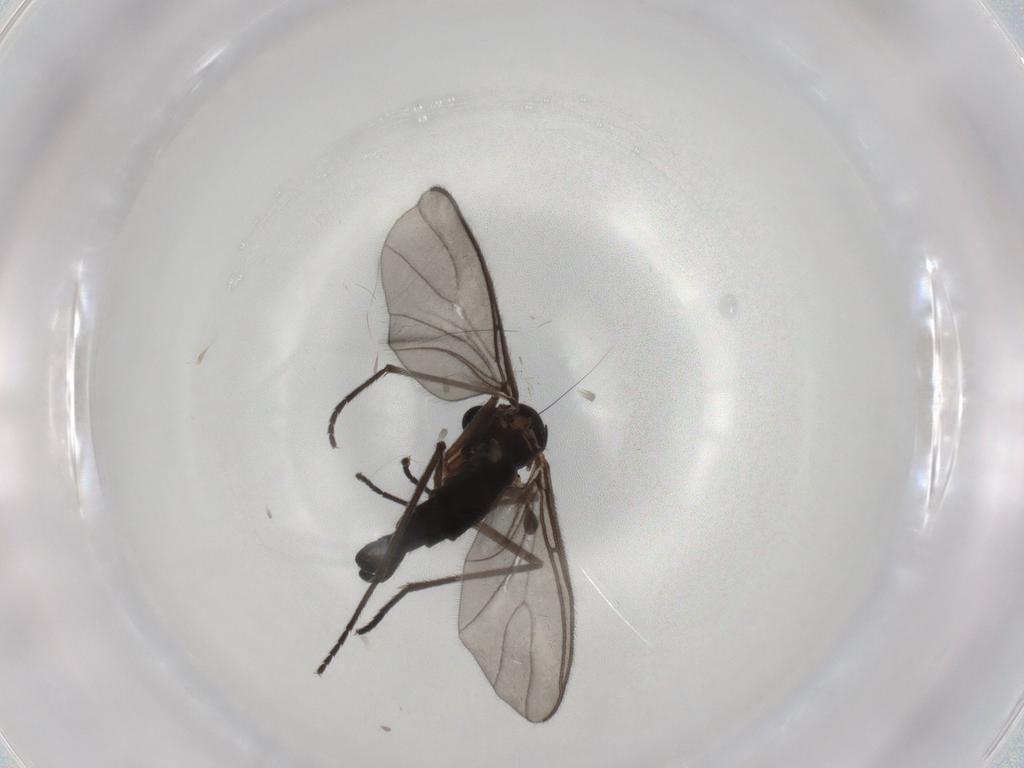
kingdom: Animalia
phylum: Arthropoda
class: Insecta
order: Diptera
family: Sciaridae
